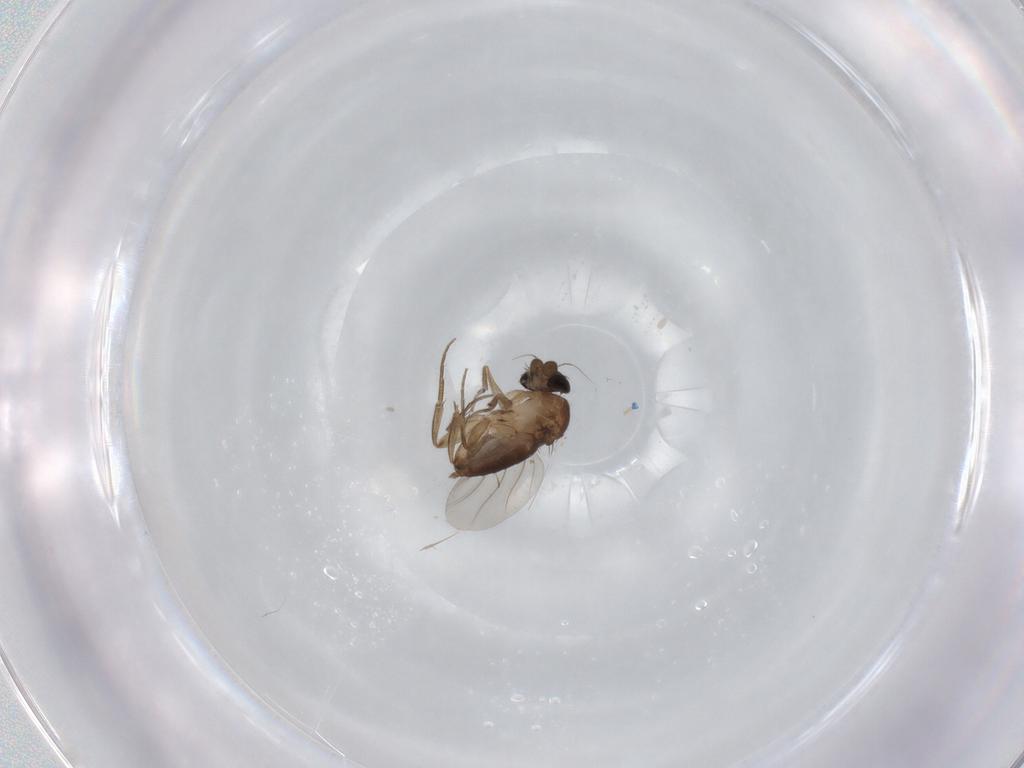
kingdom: Animalia
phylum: Arthropoda
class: Insecta
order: Diptera
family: Phoridae
